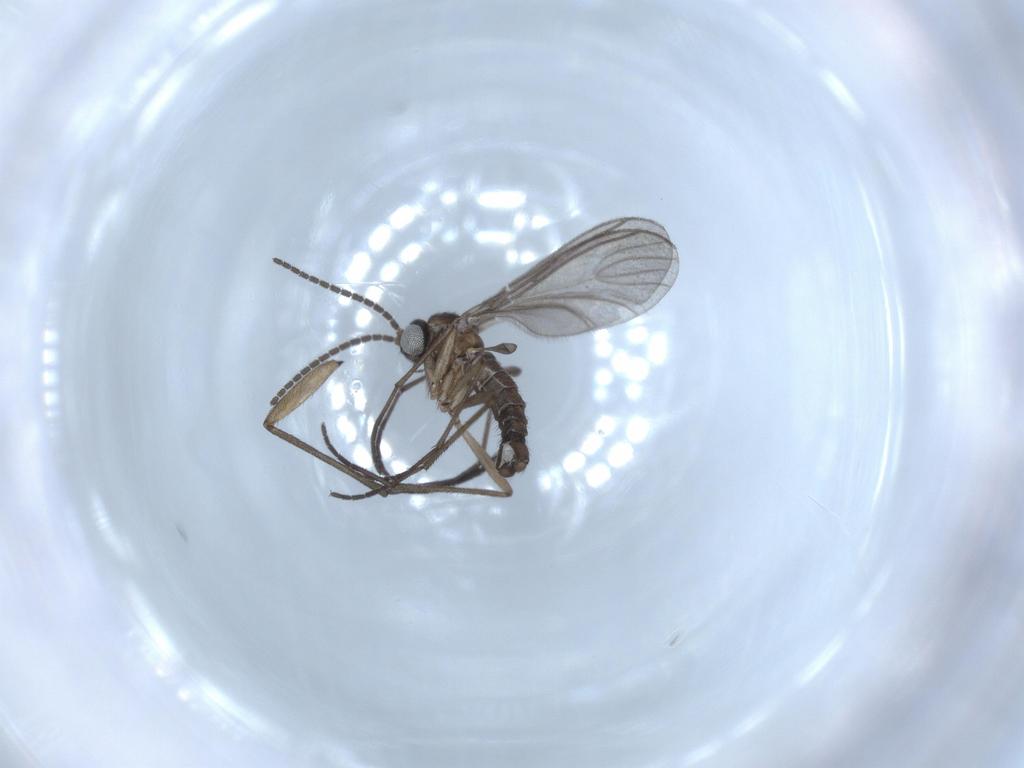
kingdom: Animalia
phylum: Arthropoda
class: Insecta
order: Diptera
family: Sciaridae
